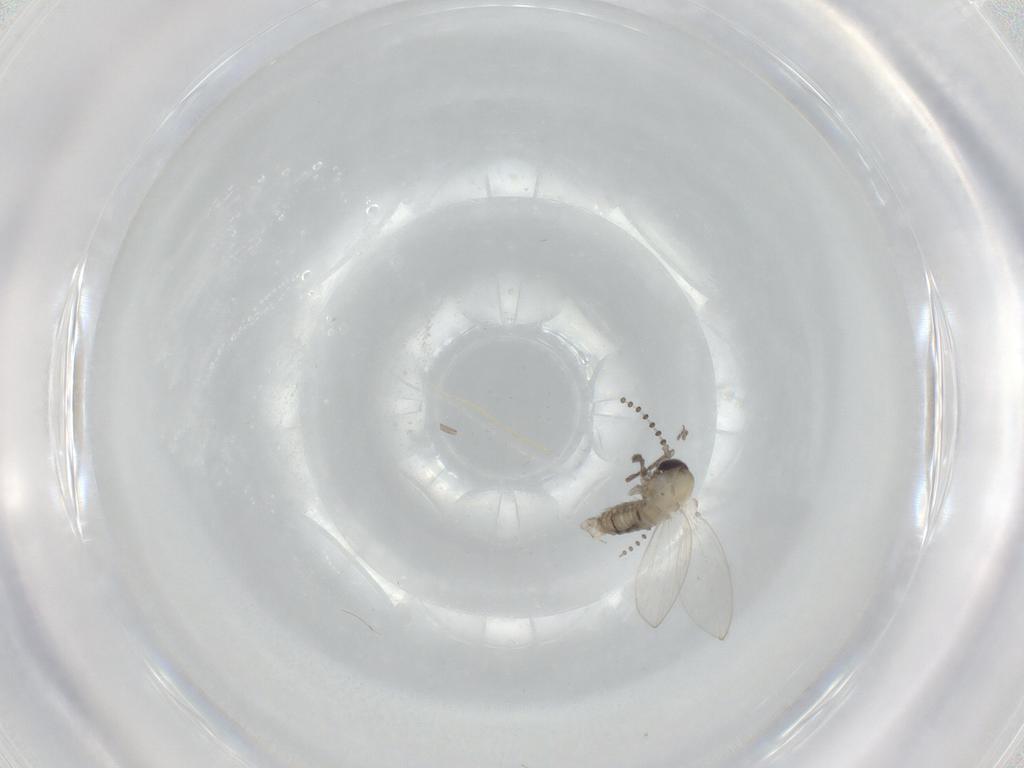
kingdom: Animalia
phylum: Arthropoda
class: Insecta
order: Diptera
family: Psychodidae
